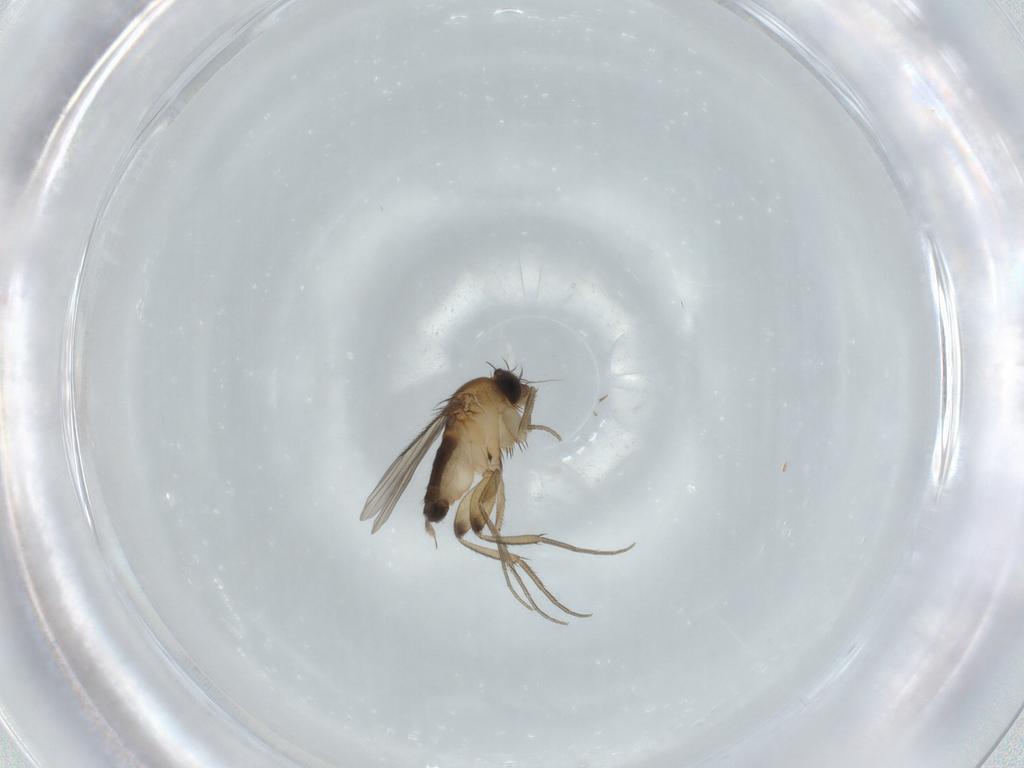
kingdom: Animalia
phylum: Arthropoda
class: Insecta
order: Diptera
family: Phoridae
